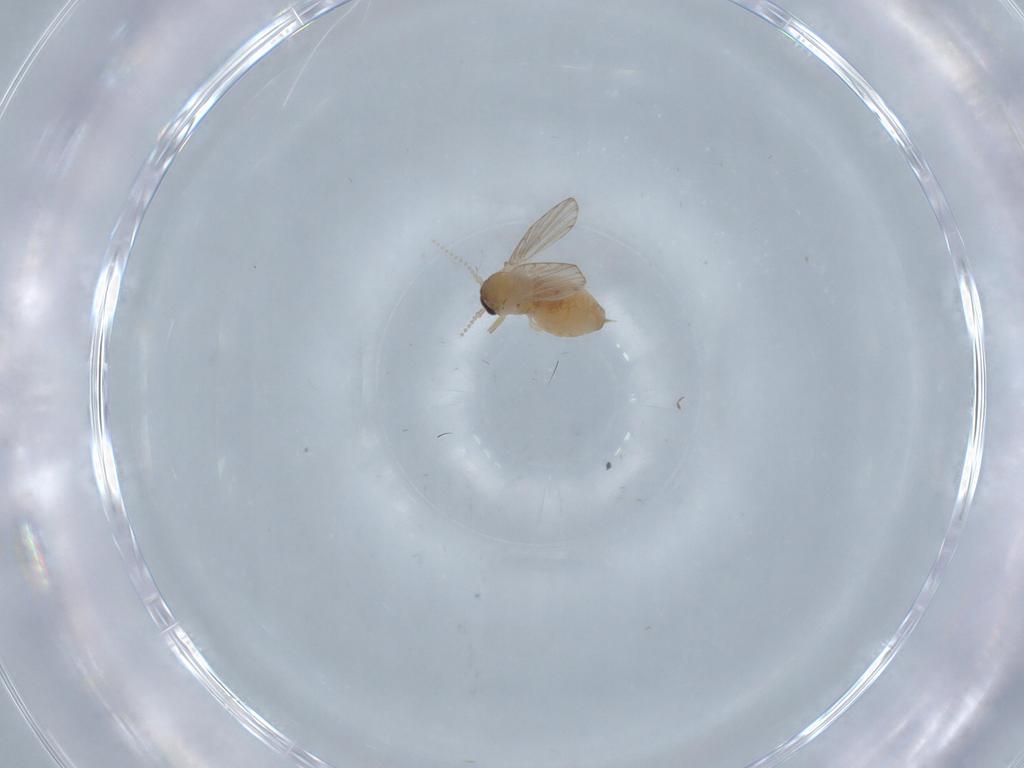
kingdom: Animalia
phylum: Arthropoda
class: Insecta
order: Diptera
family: Psychodidae
